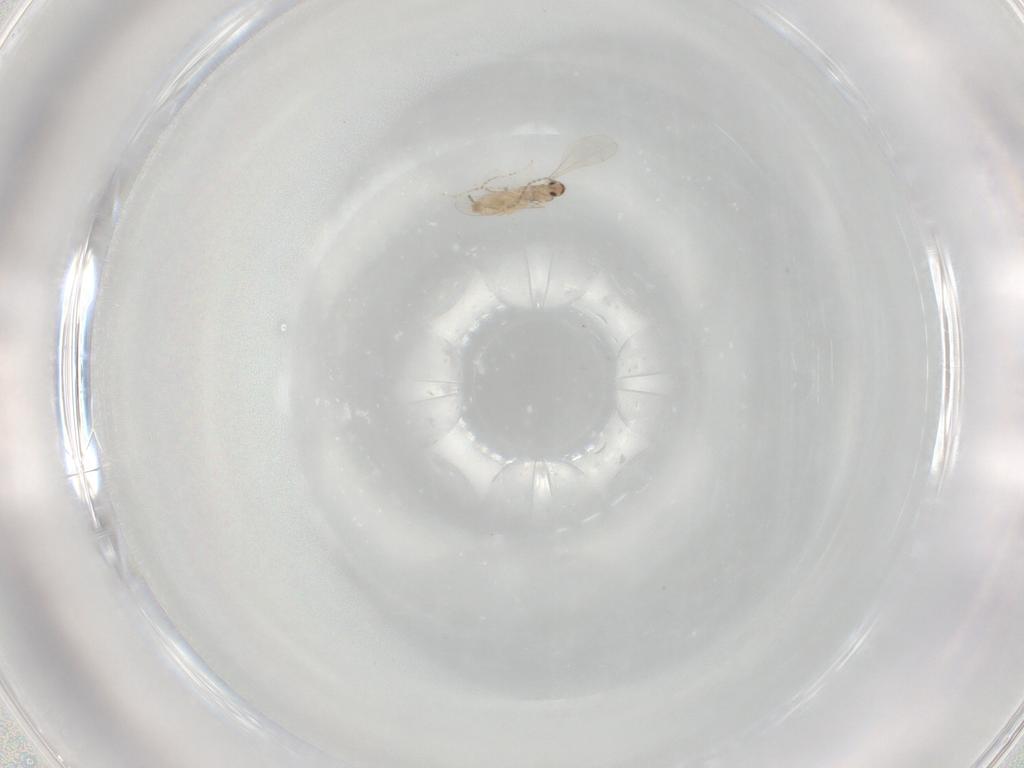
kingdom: Animalia
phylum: Arthropoda
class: Insecta
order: Diptera
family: Cecidomyiidae
